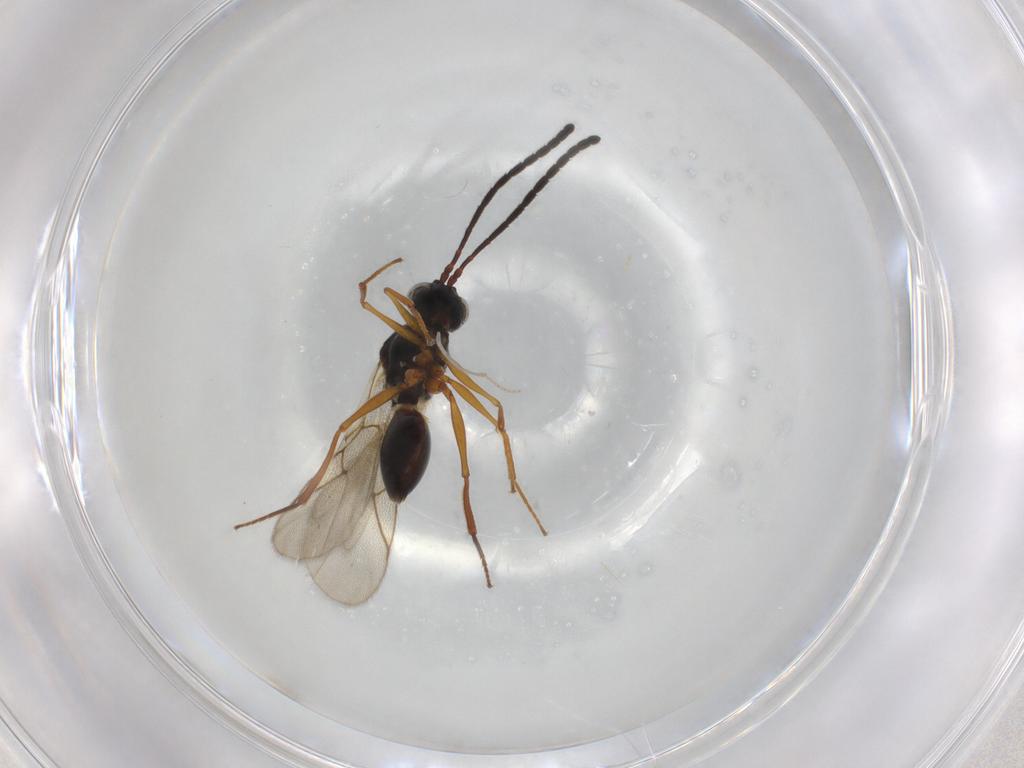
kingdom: Animalia
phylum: Arthropoda
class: Insecta
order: Hymenoptera
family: Figitidae
